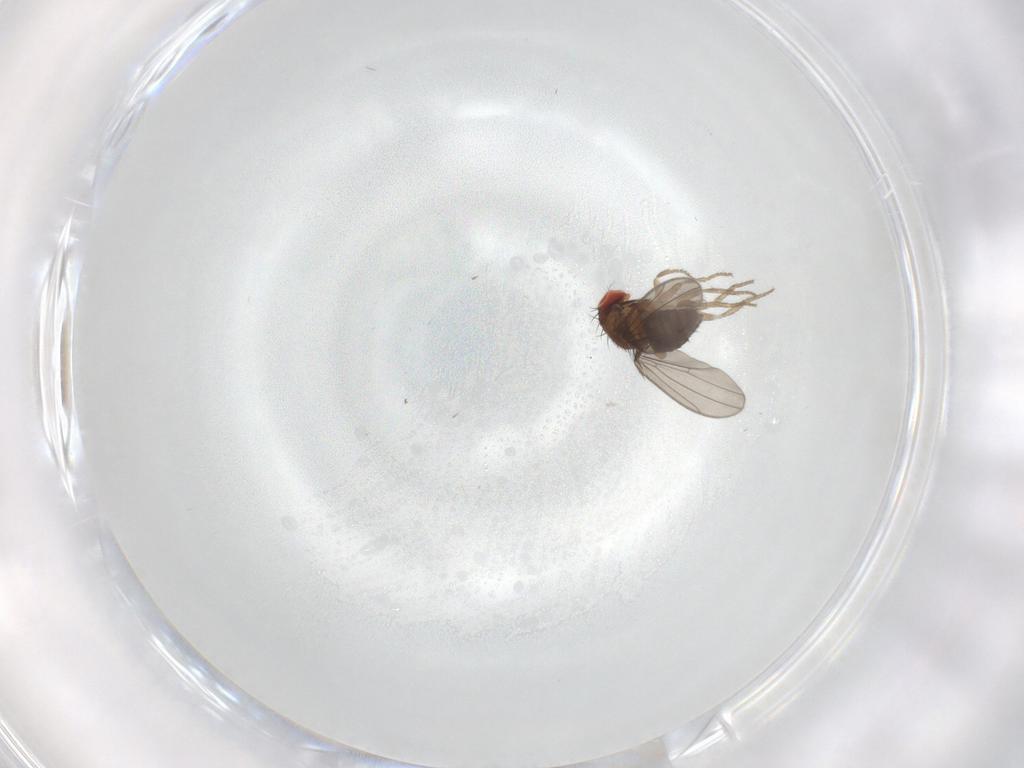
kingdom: Animalia
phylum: Arthropoda
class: Insecta
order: Diptera
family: Drosophilidae
